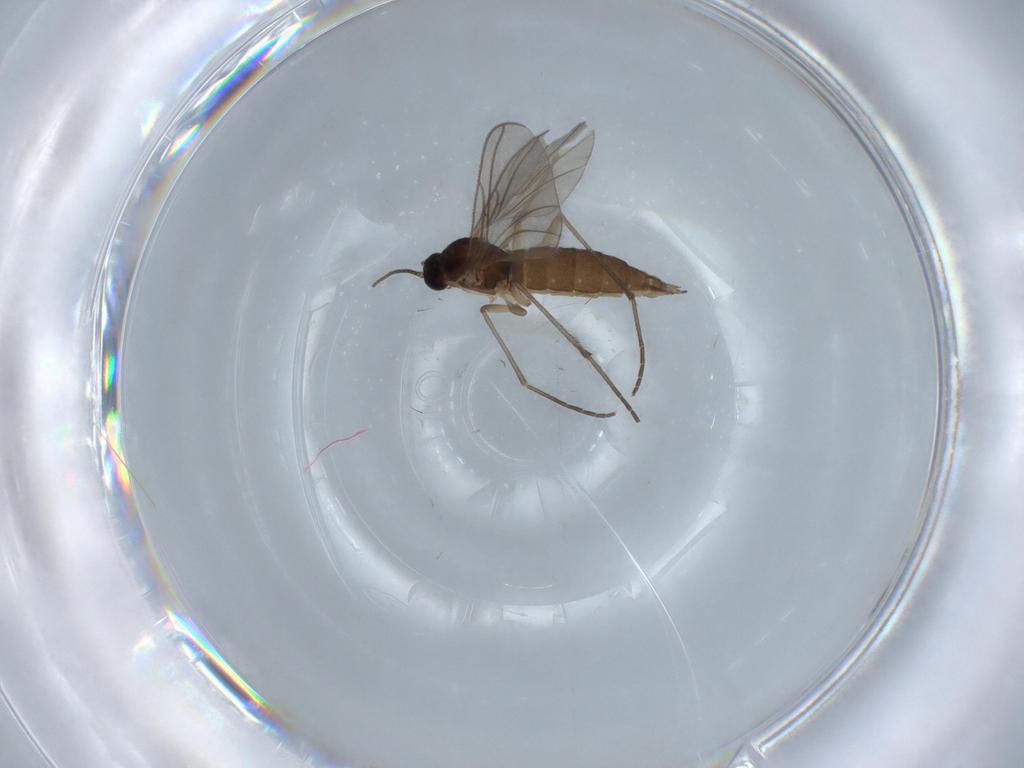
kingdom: Animalia
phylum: Arthropoda
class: Insecta
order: Diptera
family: Sciaridae
